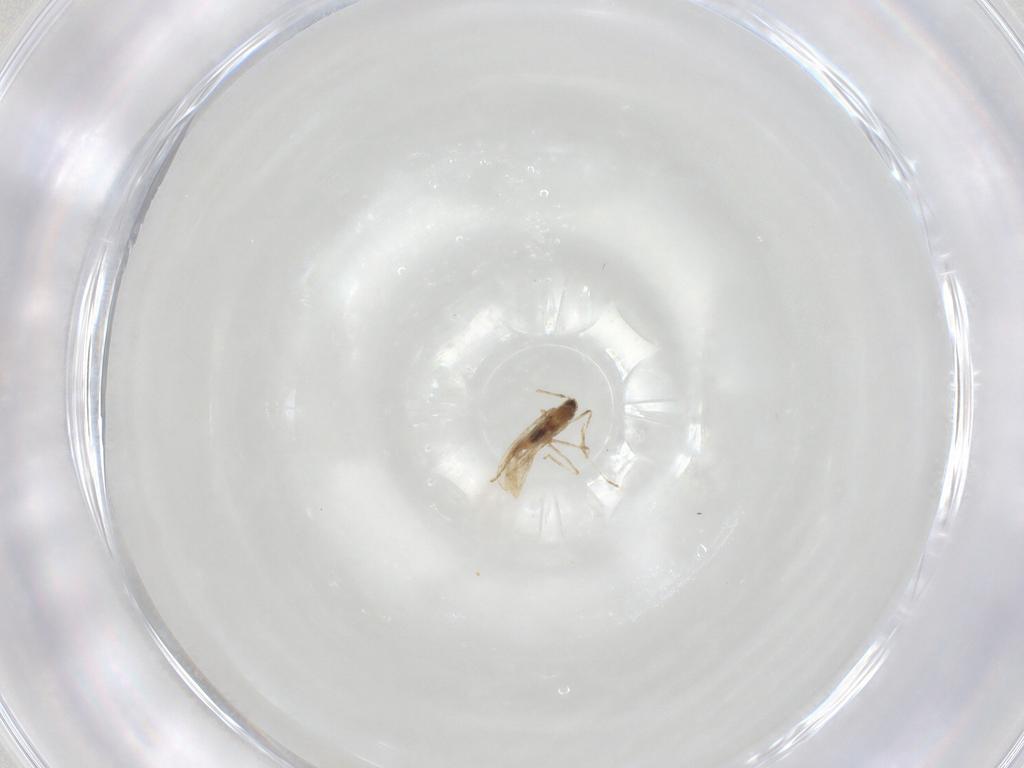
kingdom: Animalia
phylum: Arthropoda
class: Insecta
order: Diptera
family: Cecidomyiidae
